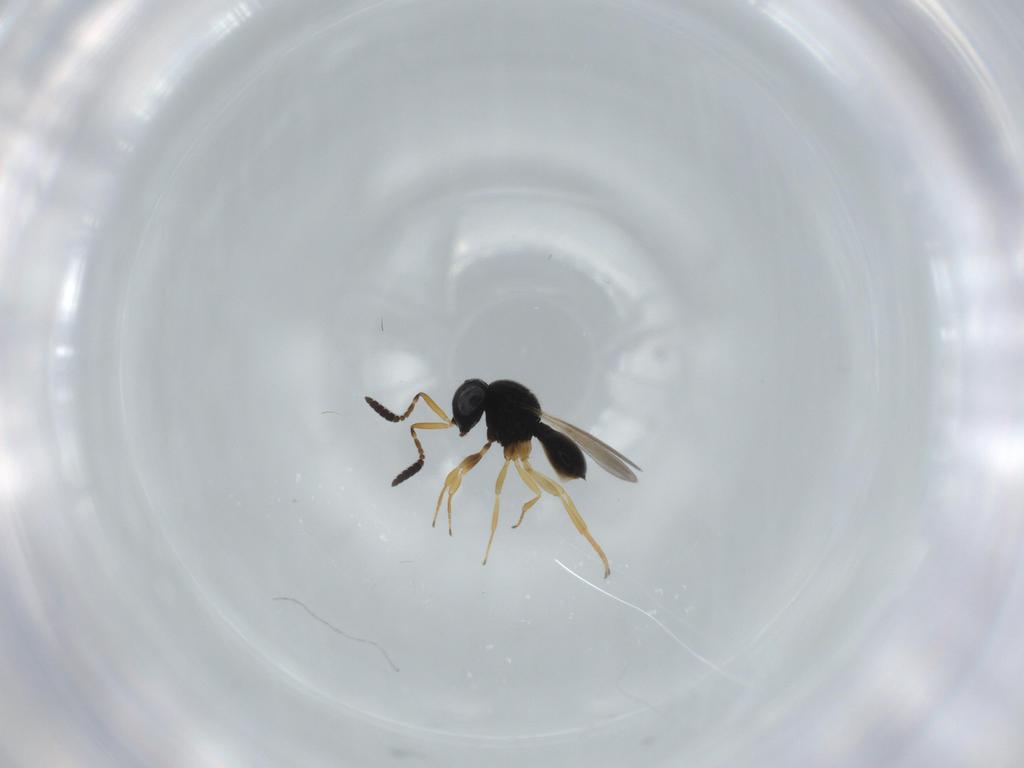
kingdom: Animalia
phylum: Arthropoda
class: Insecta
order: Hymenoptera
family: Scelionidae
